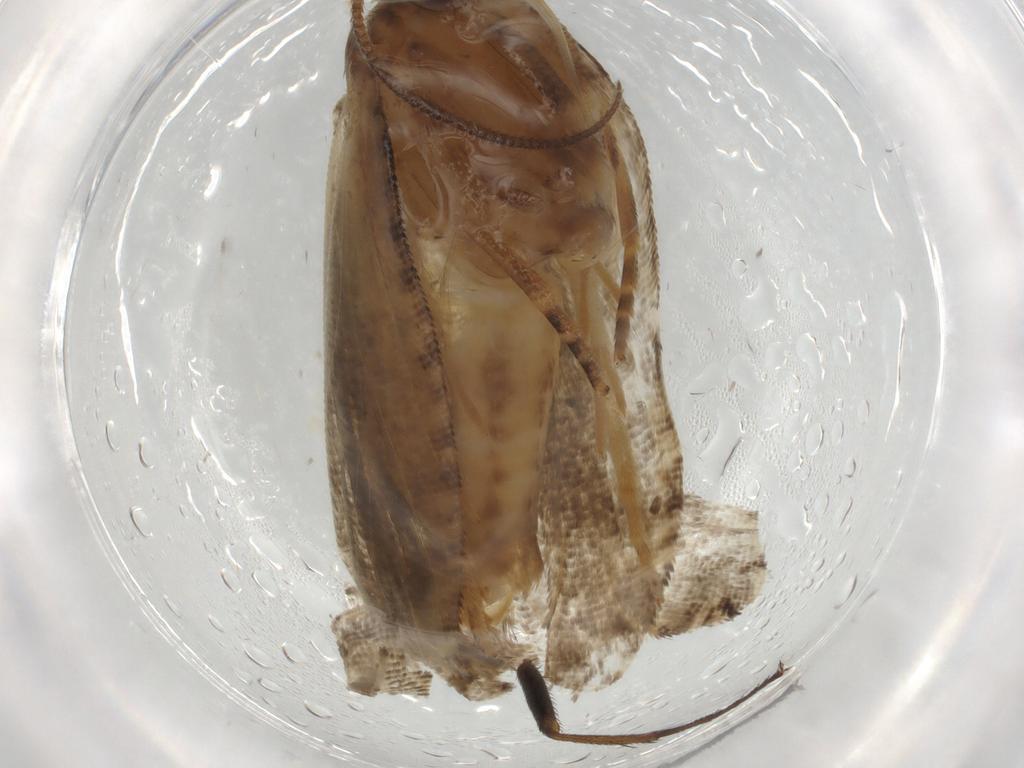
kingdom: Animalia
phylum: Arthropoda
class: Insecta
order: Lepidoptera
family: Tortricidae
